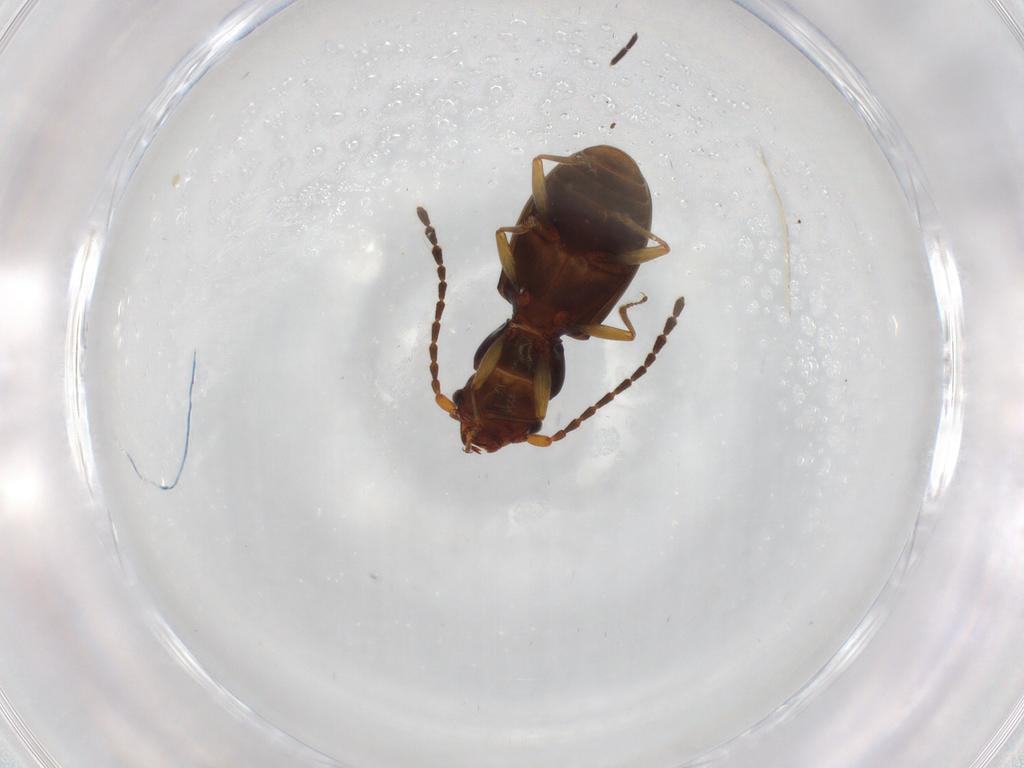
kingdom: Animalia
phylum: Arthropoda
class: Insecta
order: Coleoptera
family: Laemophloeidae
